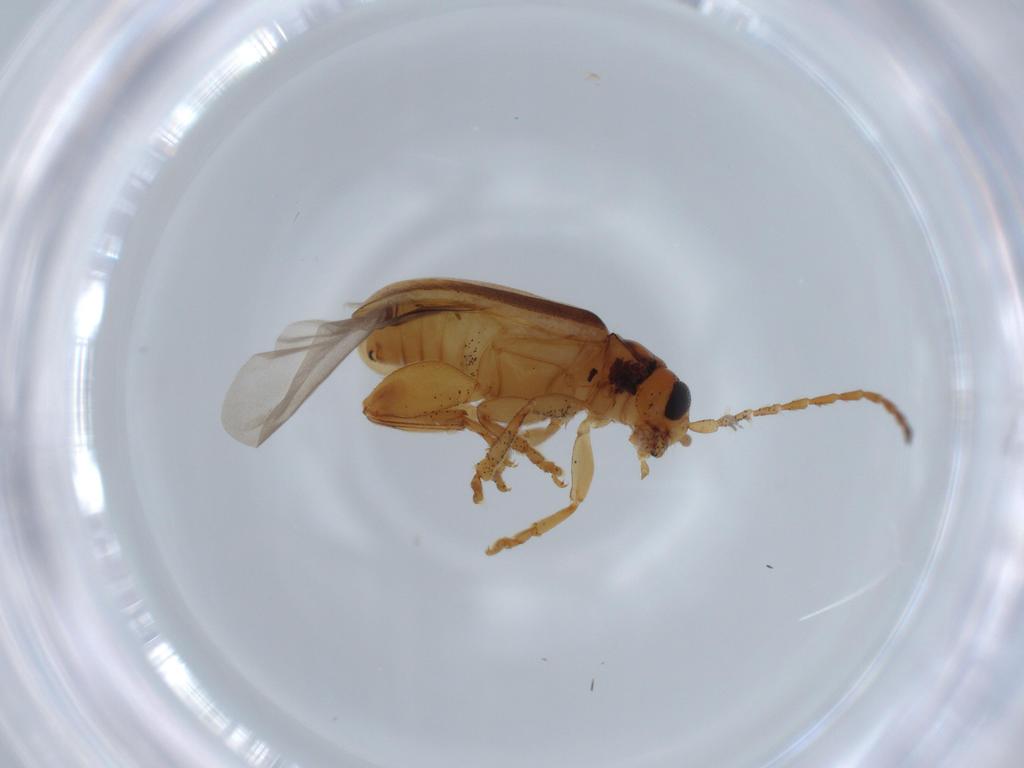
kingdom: Animalia
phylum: Arthropoda
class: Insecta
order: Coleoptera
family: Chrysomelidae
